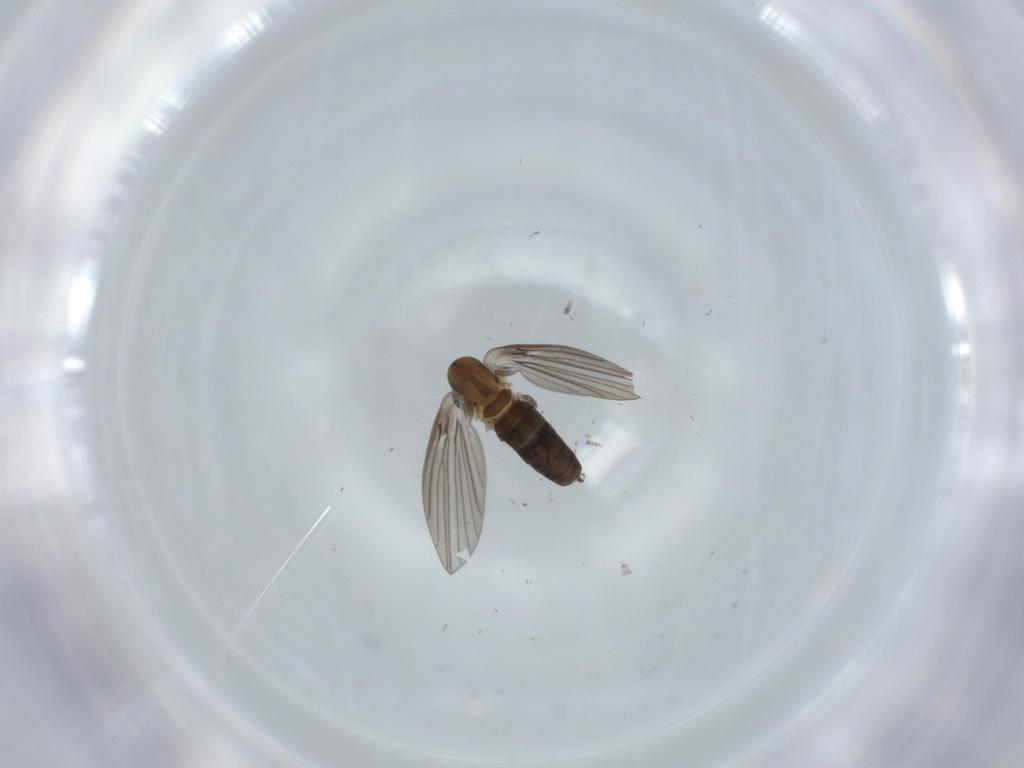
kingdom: Animalia
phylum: Arthropoda
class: Insecta
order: Diptera
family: Psychodidae
